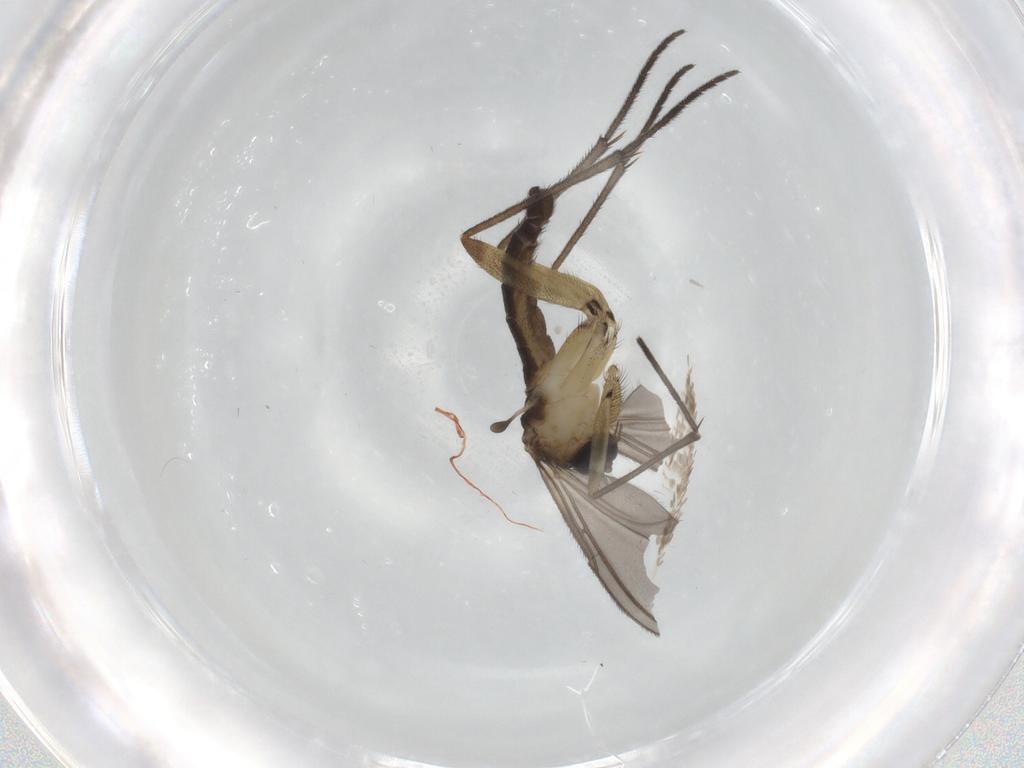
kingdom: Animalia
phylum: Arthropoda
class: Insecta
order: Diptera
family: Sciaridae
